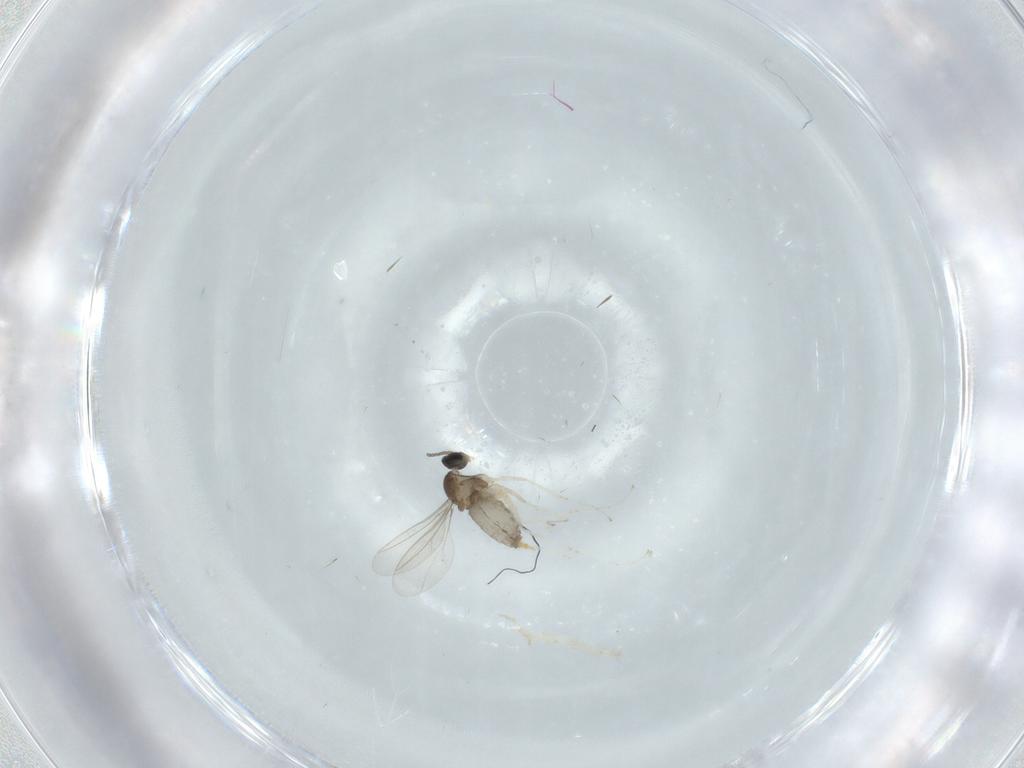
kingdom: Animalia
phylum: Arthropoda
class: Insecta
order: Diptera
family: Cecidomyiidae
